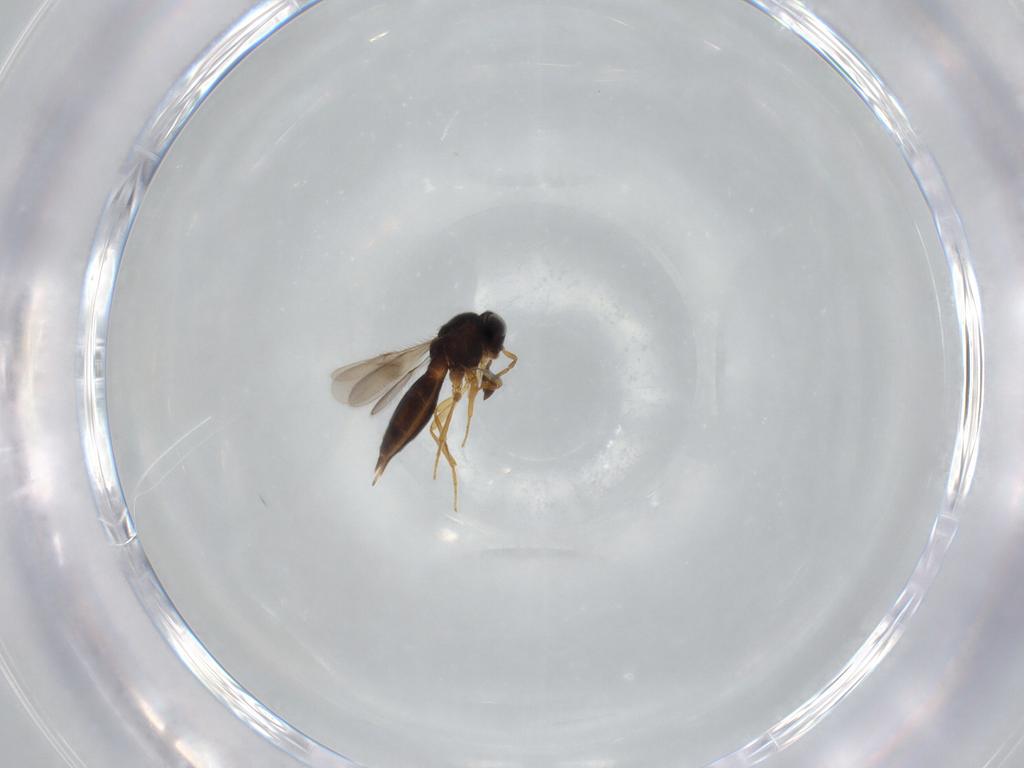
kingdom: Animalia
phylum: Arthropoda
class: Insecta
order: Hymenoptera
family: Scelionidae
